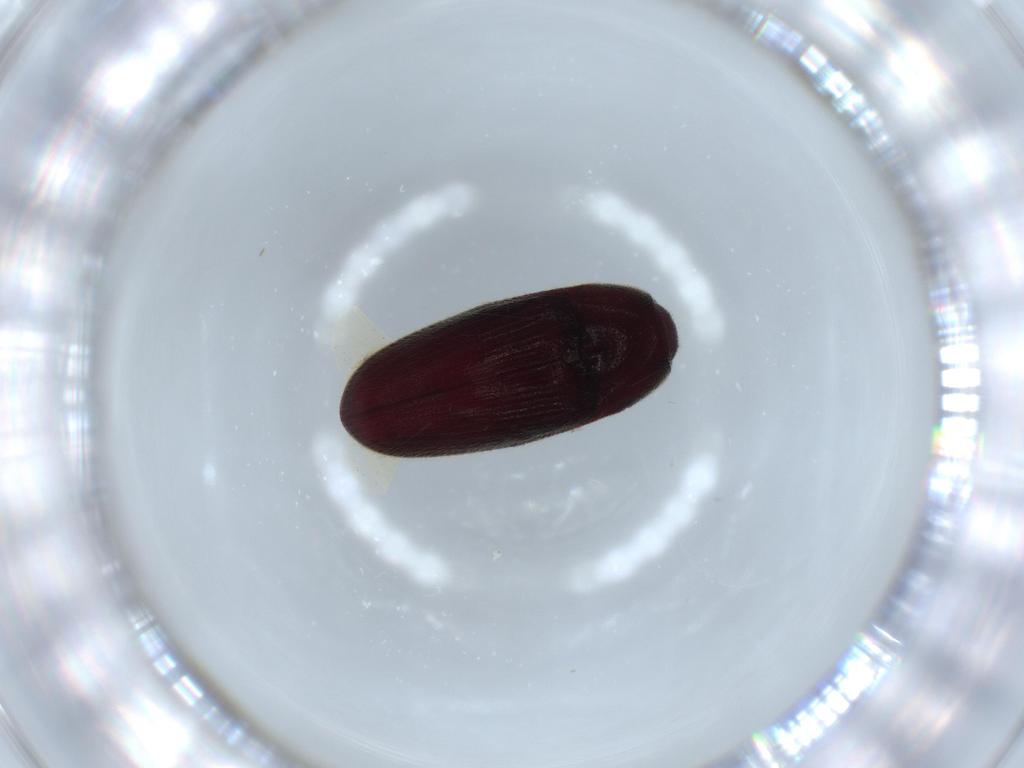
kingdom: Animalia
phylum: Arthropoda
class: Insecta
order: Coleoptera
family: Throscidae
